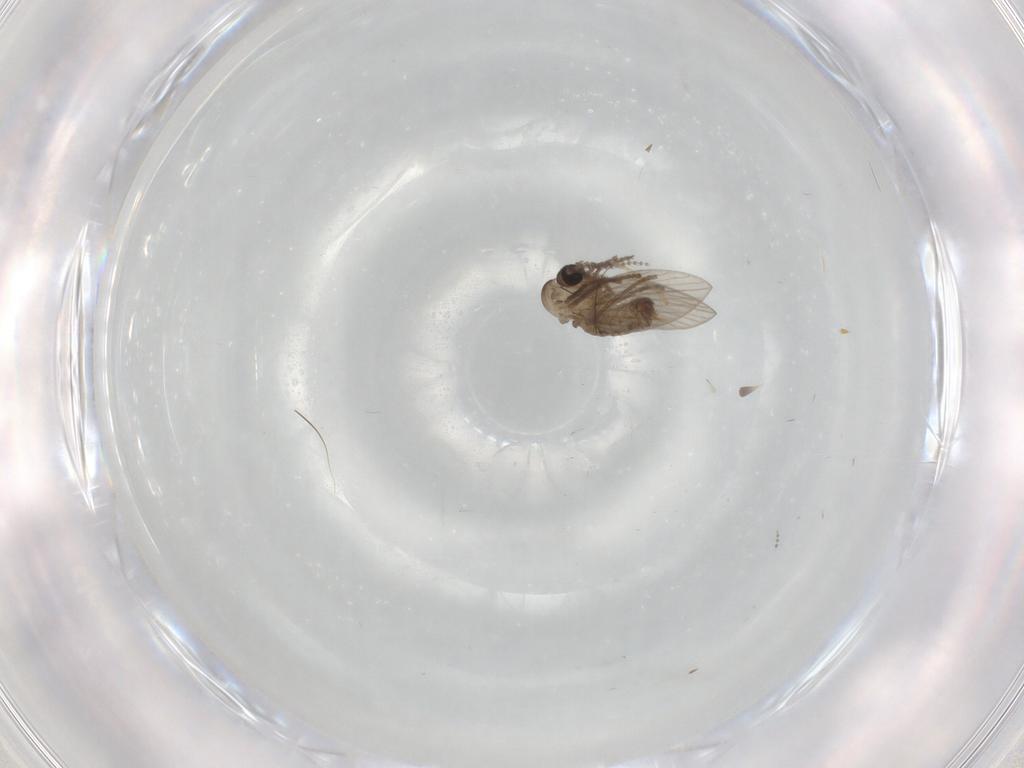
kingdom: Animalia
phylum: Arthropoda
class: Insecta
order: Diptera
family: Psychodidae
